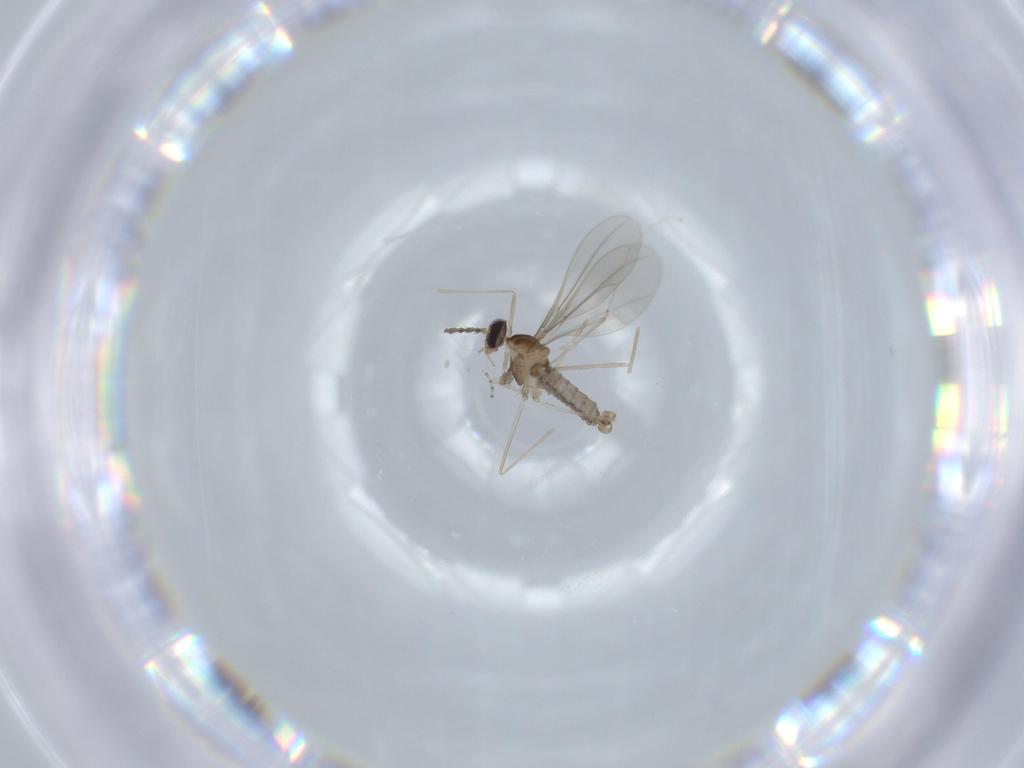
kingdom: Animalia
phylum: Arthropoda
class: Insecta
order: Diptera
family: Cecidomyiidae
